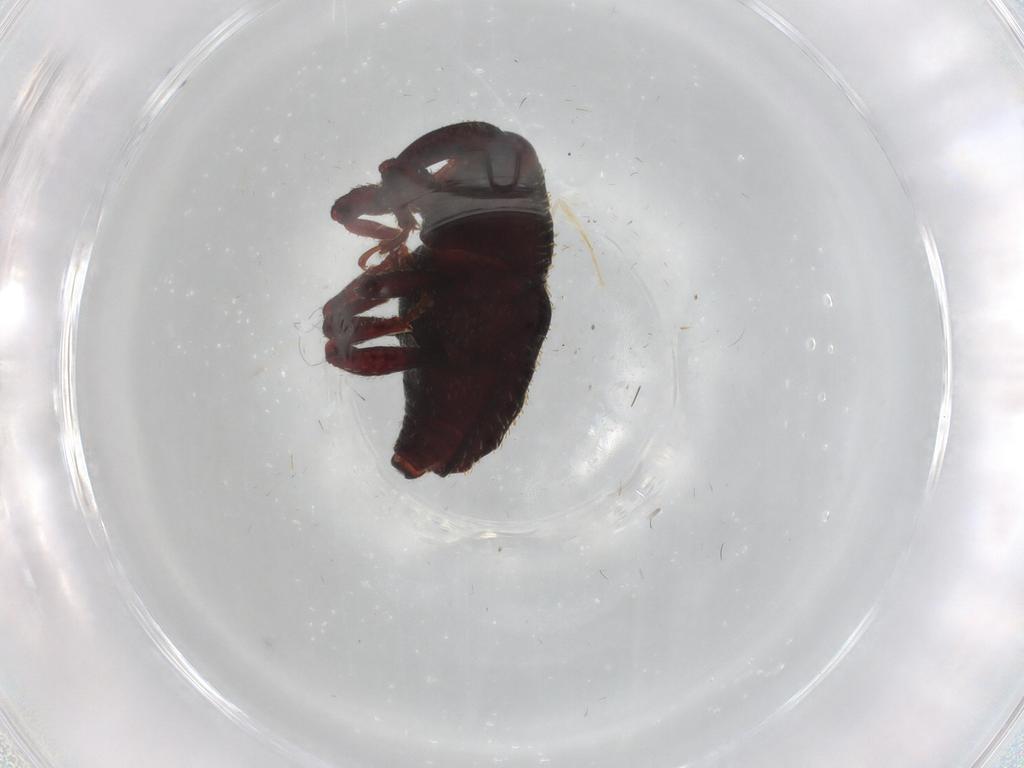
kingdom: Animalia
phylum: Arthropoda
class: Insecta
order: Coleoptera
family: Curculionidae
